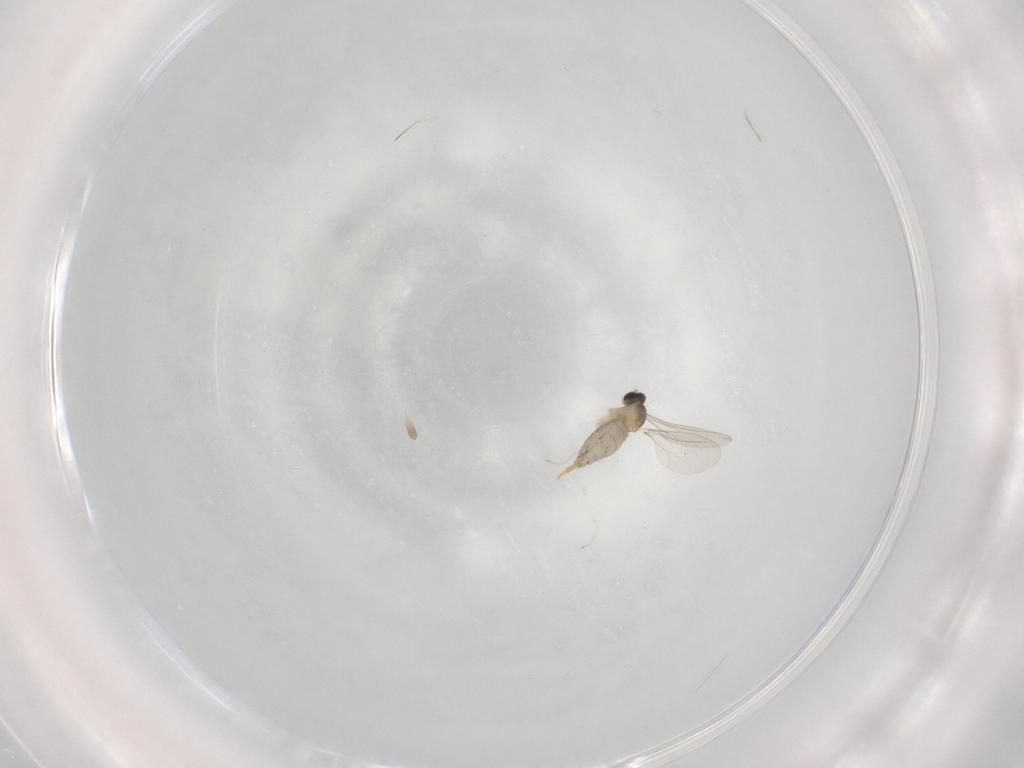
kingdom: Animalia
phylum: Arthropoda
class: Insecta
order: Diptera
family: Cecidomyiidae
